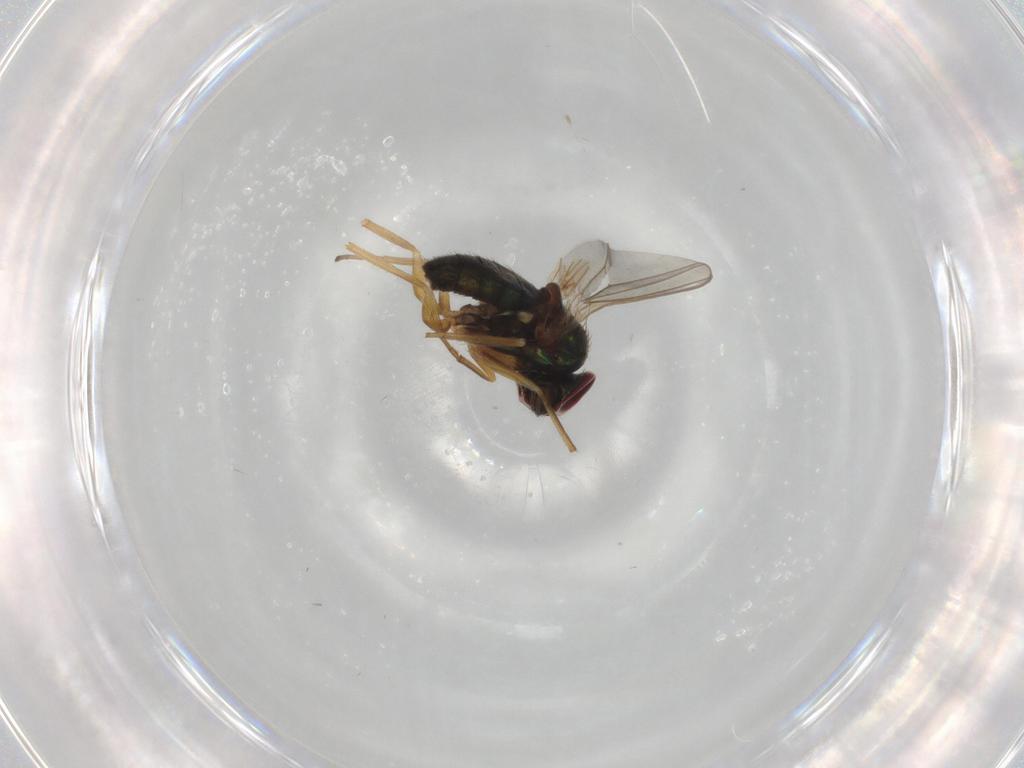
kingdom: Animalia
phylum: Arthropoda
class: Insecta
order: Diptera
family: Dolichopodidae
